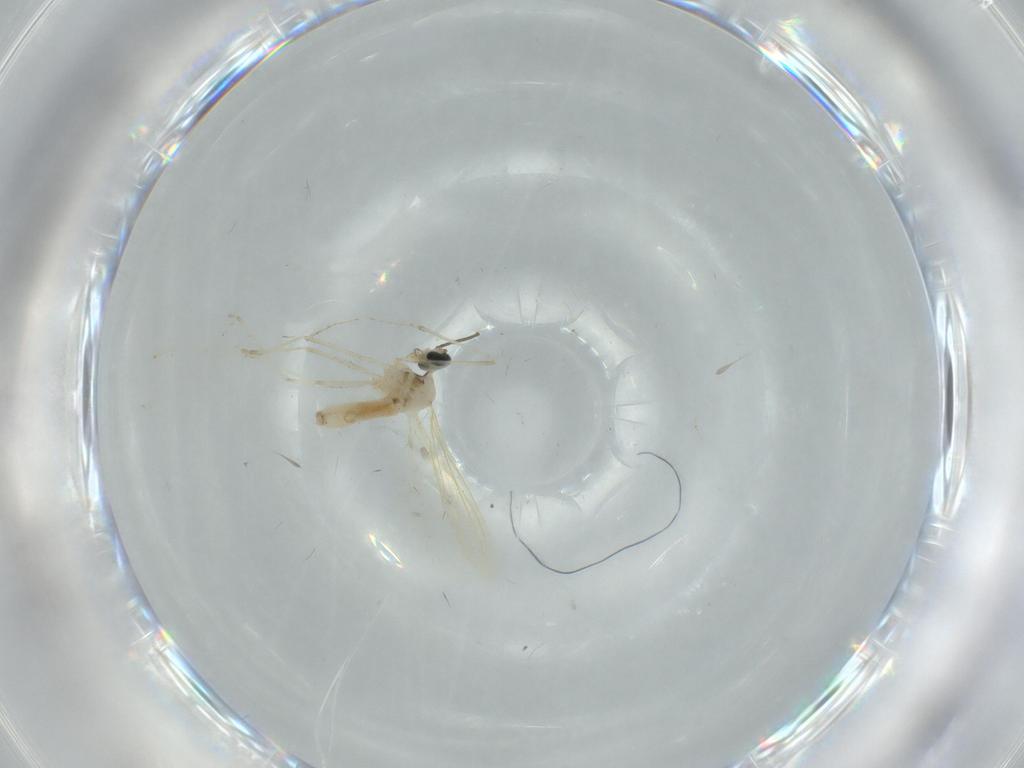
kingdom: Animalia
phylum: Arthropoda
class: Insecta
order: Diptera
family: Cecidomyiidae
